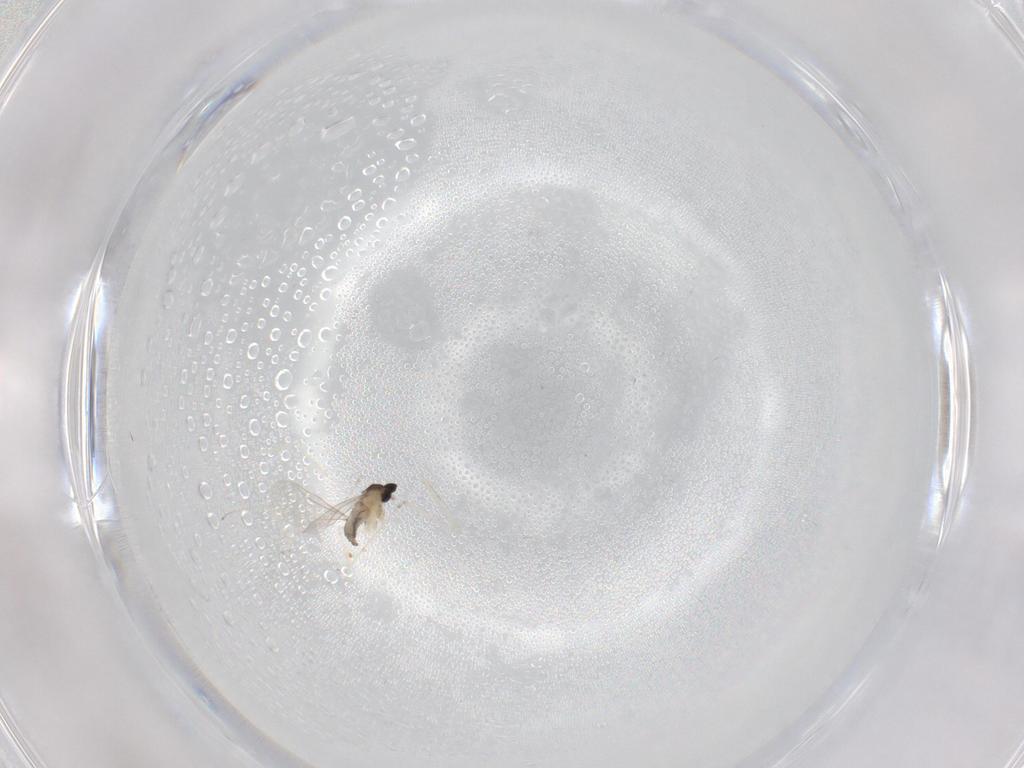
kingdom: Animalia
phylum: Arthropoda
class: Insecta
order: Diptera
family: Cecidomyiidae
